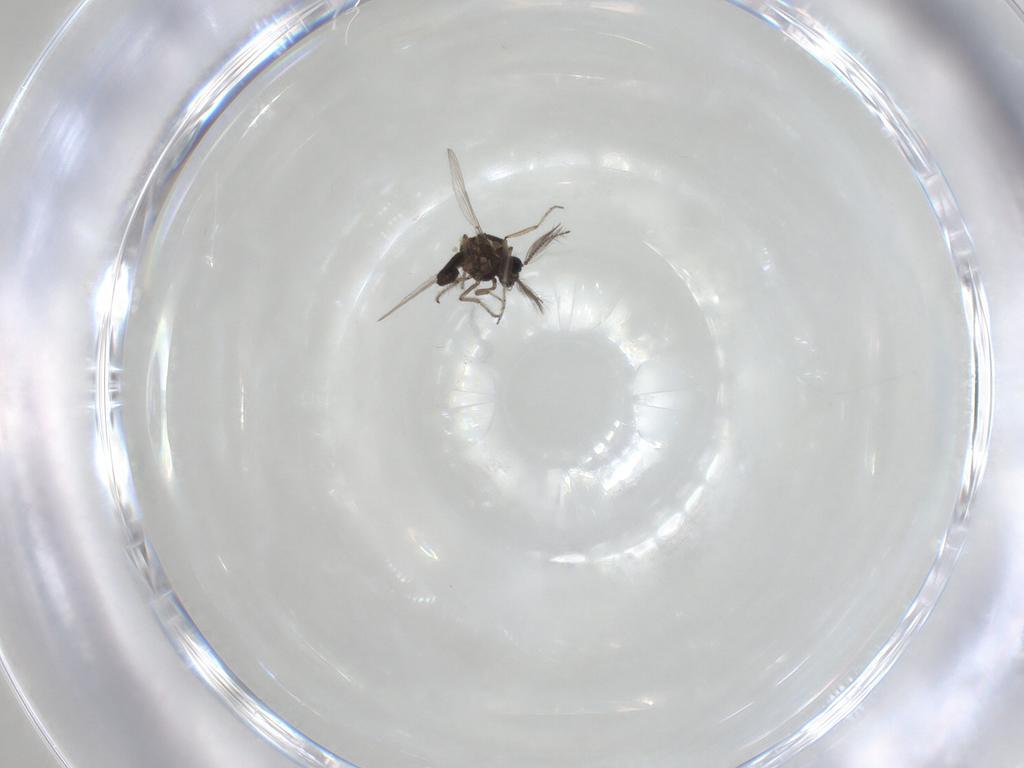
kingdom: Animalia
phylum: Arthropoda
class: Insecta
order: Diptera
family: Ceratopogonidae
